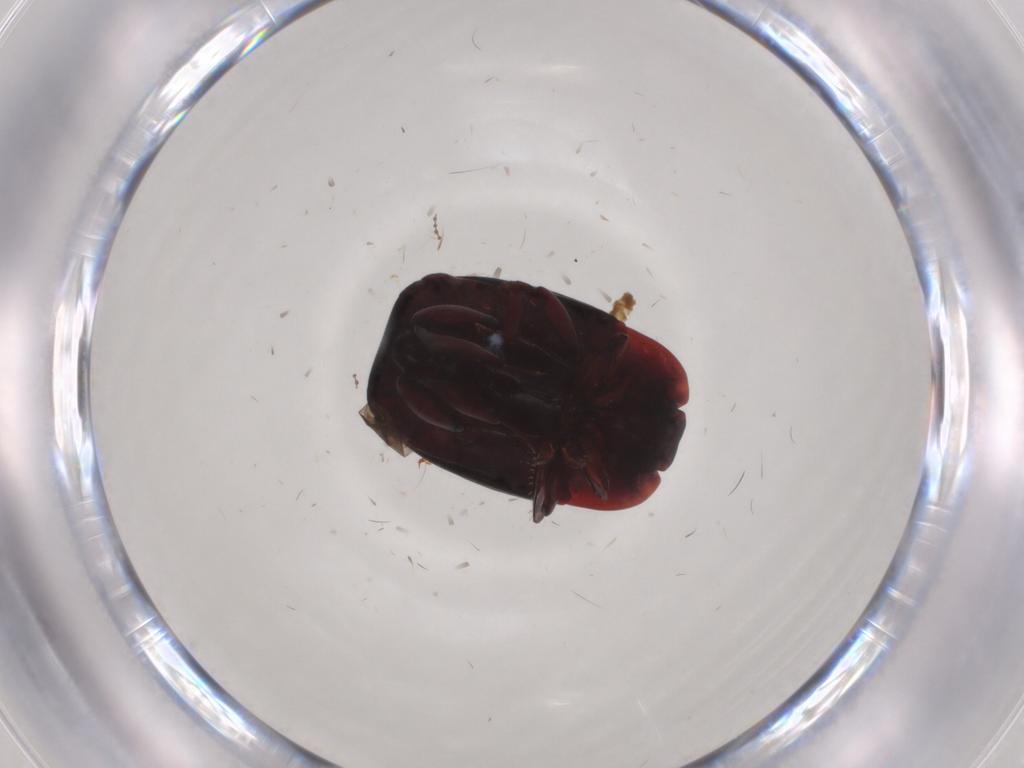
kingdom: Animalia
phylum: Arthropoda
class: Insecta
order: Coleoptera
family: Staphylinidae
